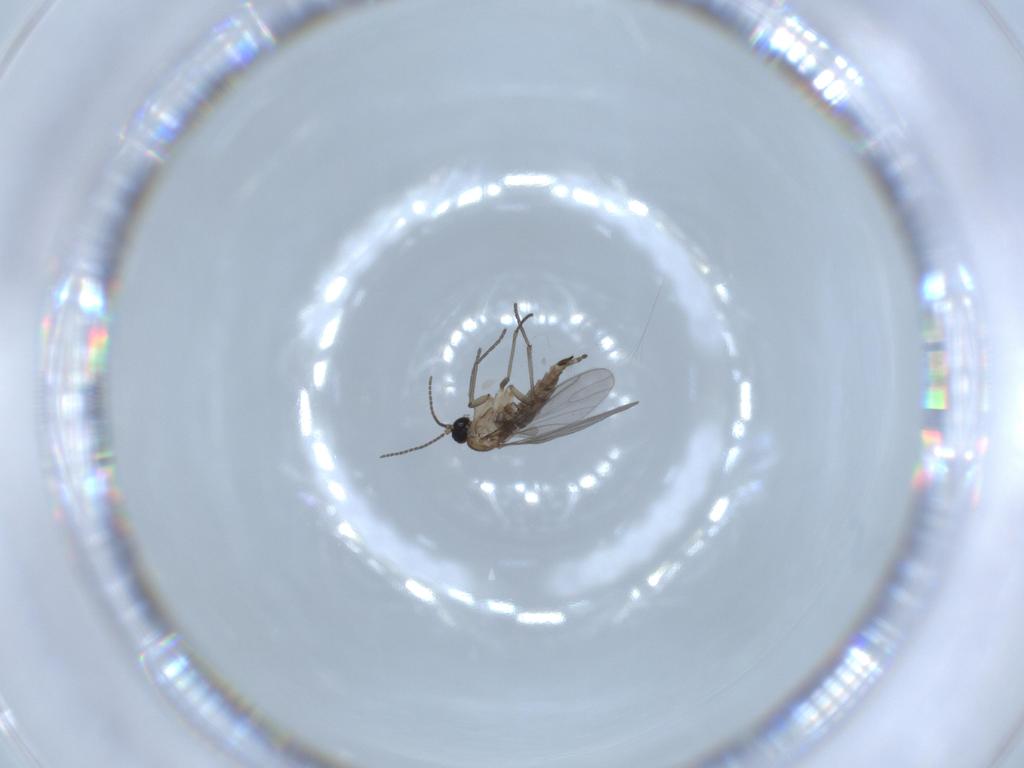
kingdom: Animalia
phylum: Arthropoda
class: Insecta
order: Diptera
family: Sciaridae
